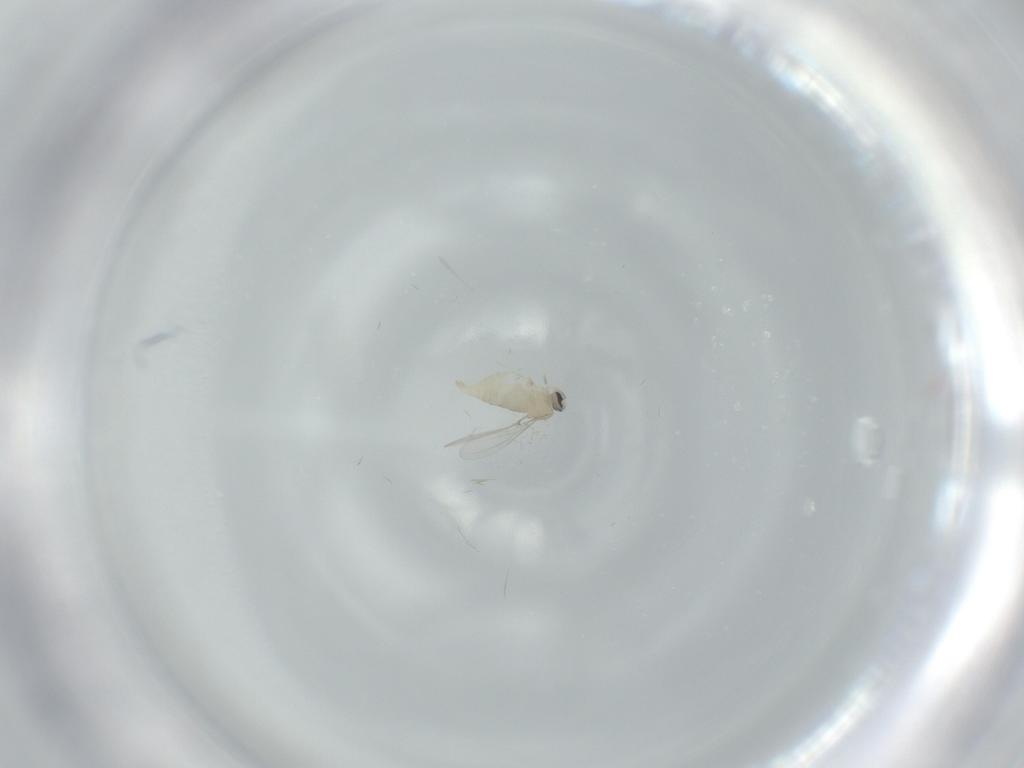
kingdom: Animalia
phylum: Arthropoda
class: Insecta
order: Diptera
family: Cecidomyiidae
